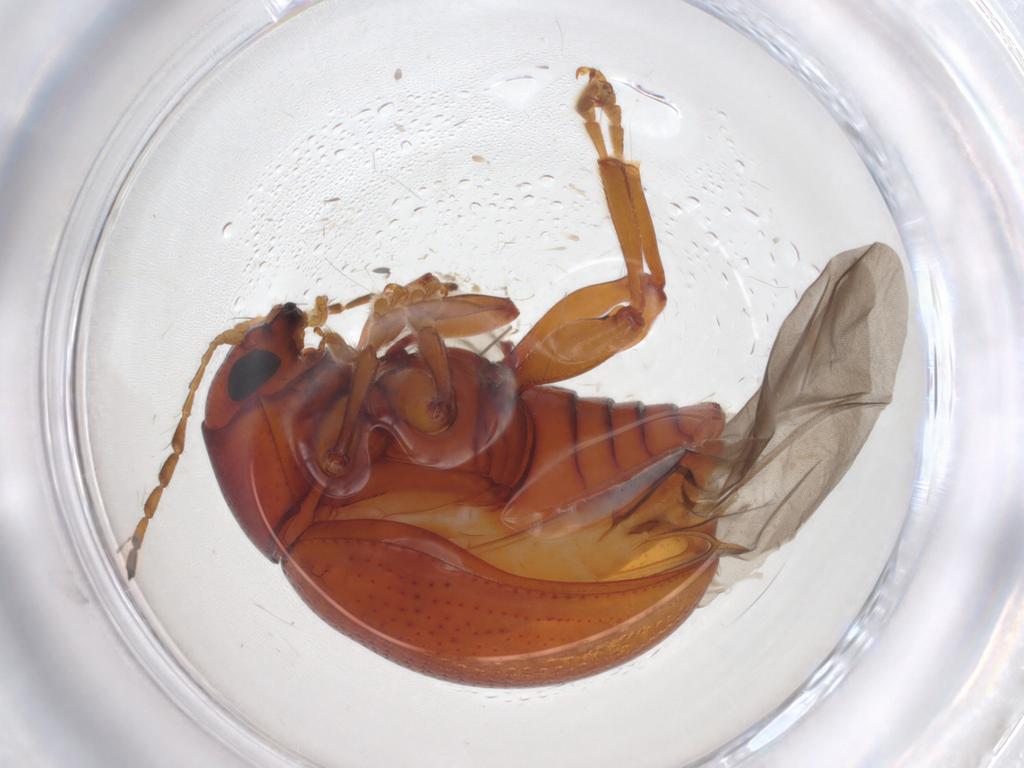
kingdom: Animalia
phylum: Arthropoda
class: Insecta
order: Coleoptera
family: Chrysomelidae
